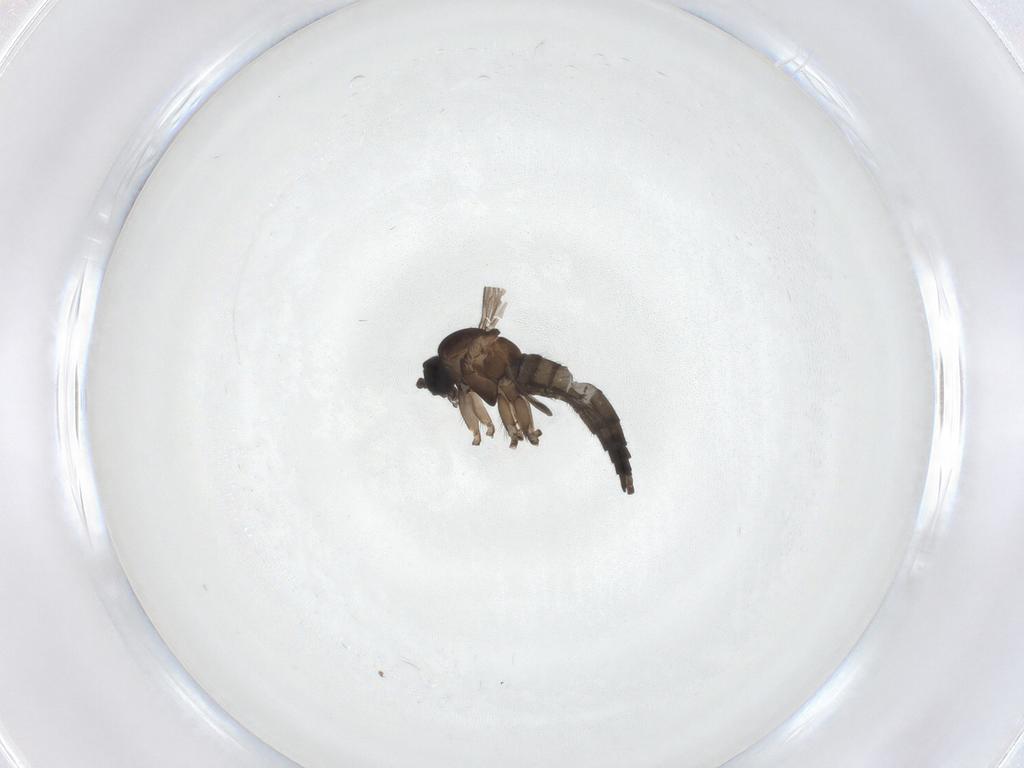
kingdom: Animalia
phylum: Arthropoda
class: Insecta
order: Diptera
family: Sciaridae
